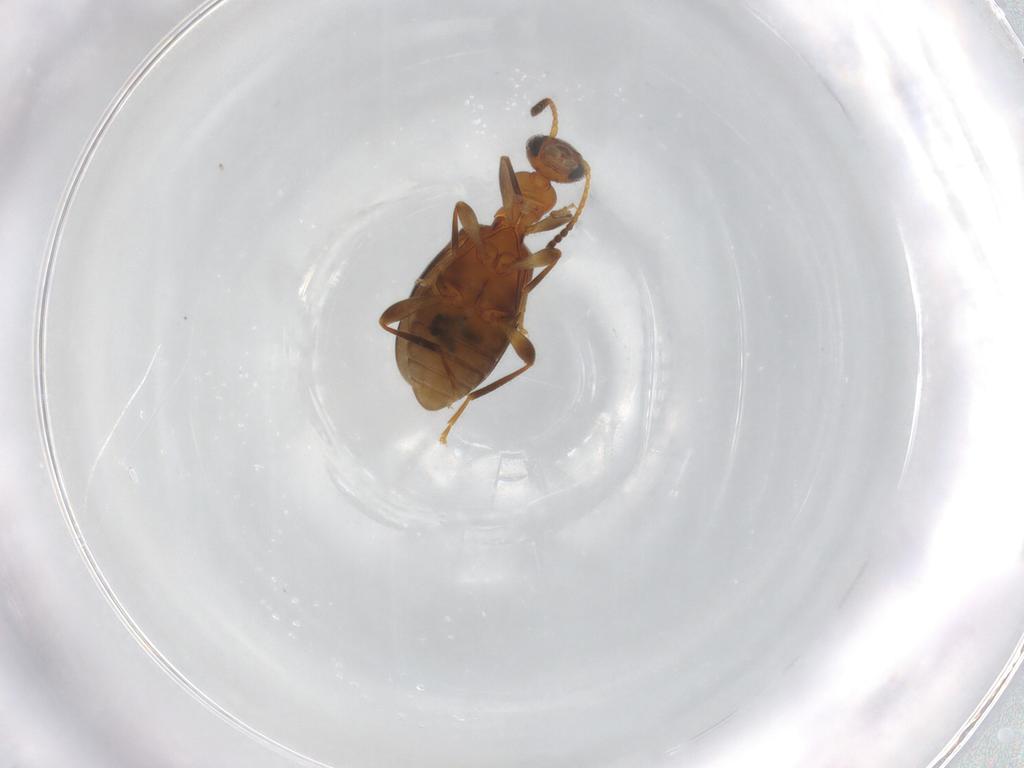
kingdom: Animalia
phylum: Arthropoda
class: Insecta
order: Coleoptera
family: Anthicidae
